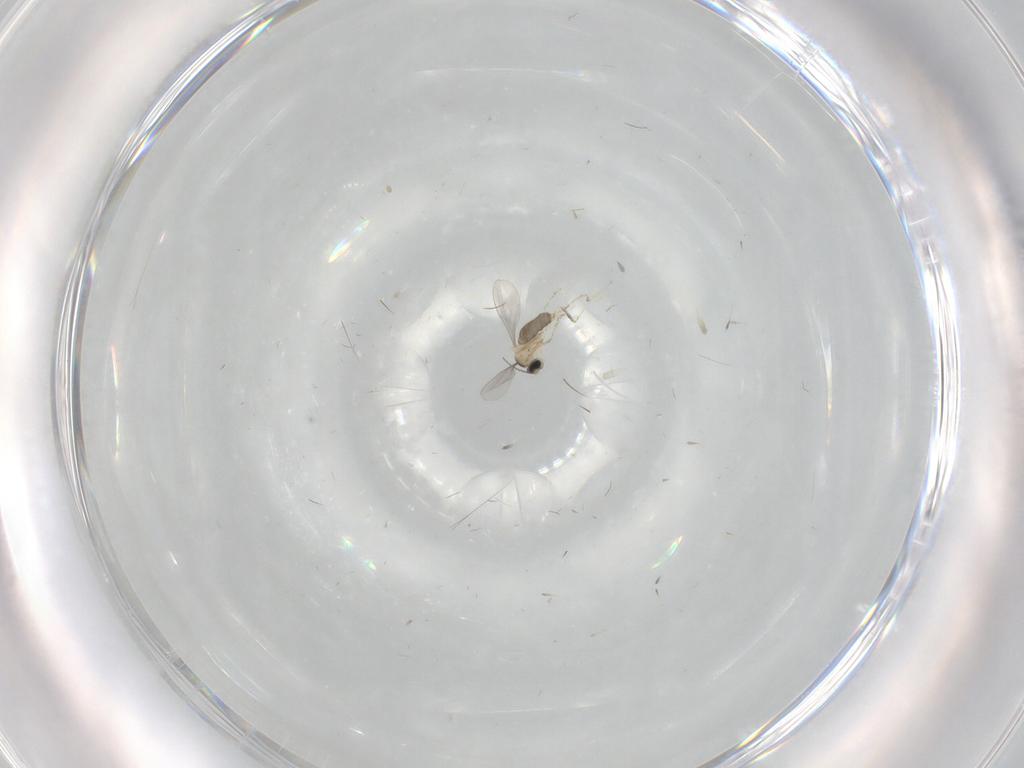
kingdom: Animalia
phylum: Arthropoda
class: Insecta
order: Diptera
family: Cecidomyiidae
